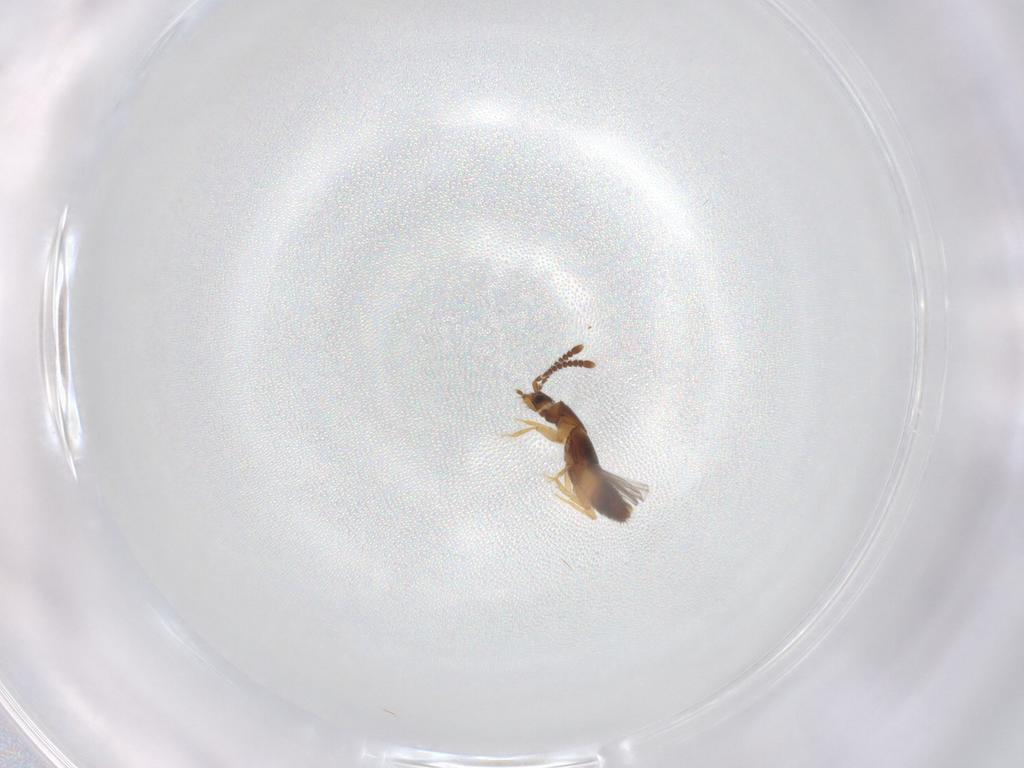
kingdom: Animalia
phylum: Arthropoda
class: Insecta
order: Coleoptera
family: Staphylinidae
